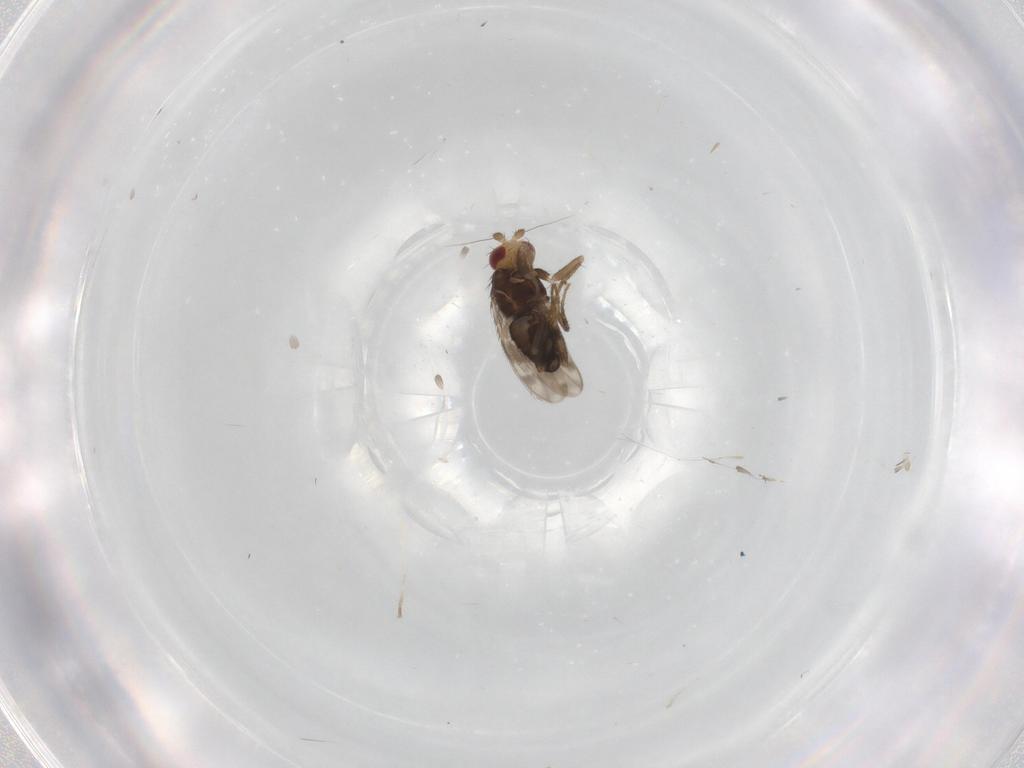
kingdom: Animalia
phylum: Arthropoda
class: Insecta
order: Diptera
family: Sphaeroceridae
